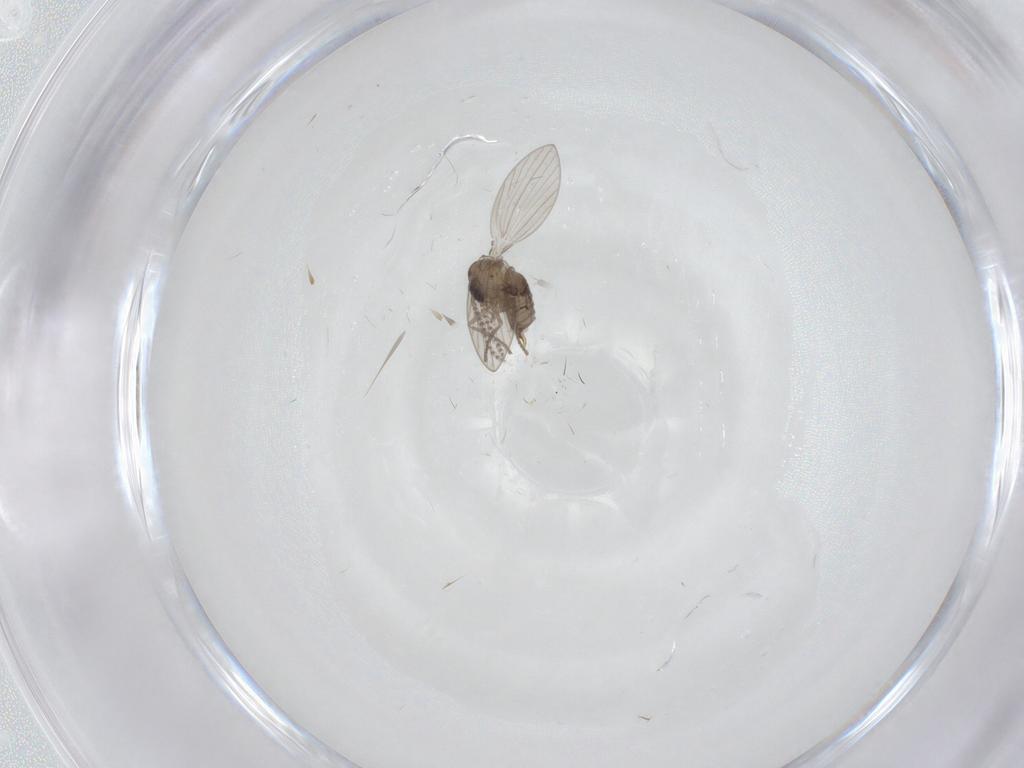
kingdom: Animalia
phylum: Arthropoda
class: Insecta
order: Diptera
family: Psychodidae
